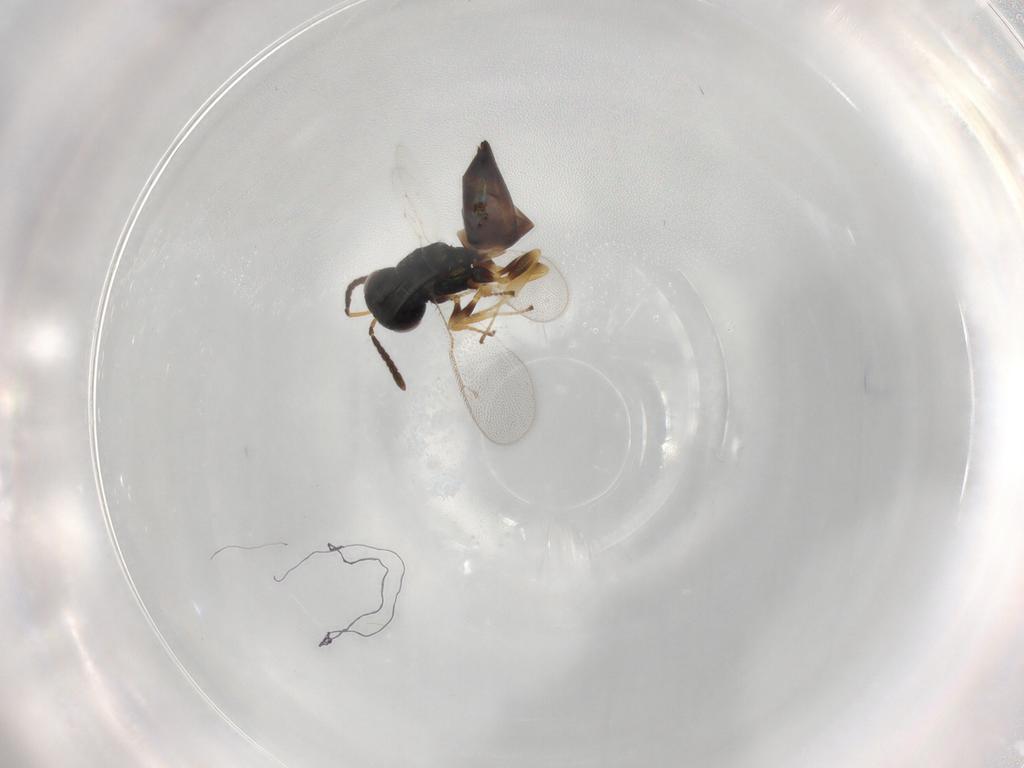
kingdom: Animalia
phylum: Arthropoda
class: Insecta
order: Hymenoptera
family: Pteromalidae
